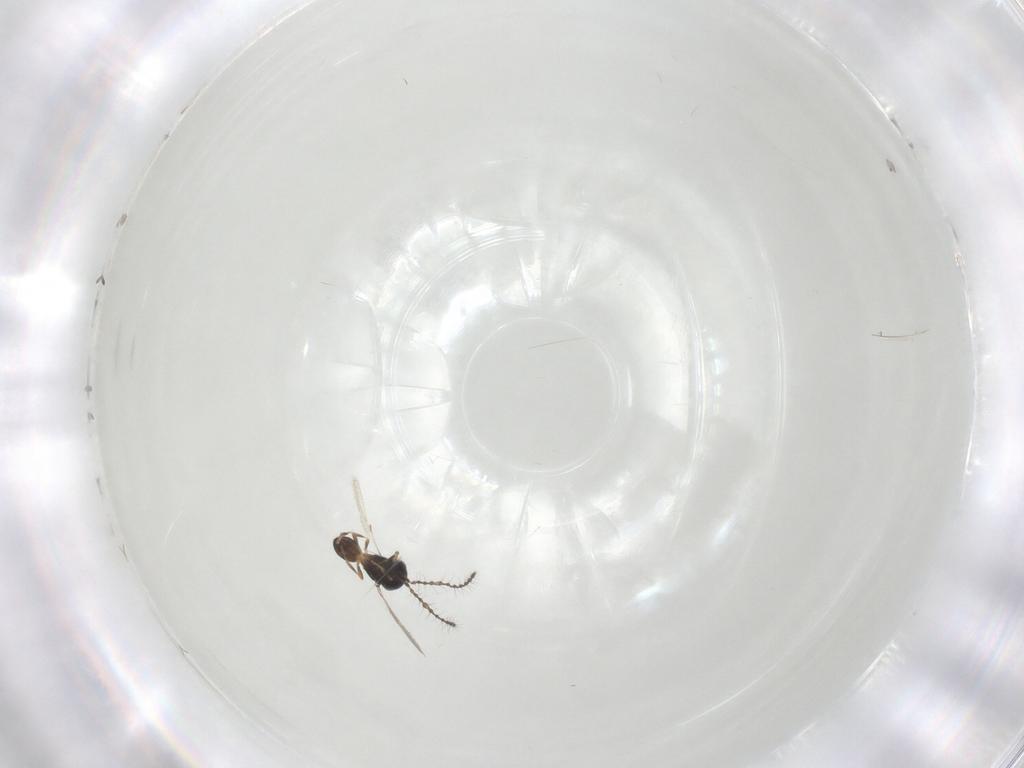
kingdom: Animalia
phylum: Arthropoda
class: Insecta
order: Hymenoptera
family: Scelionidae
